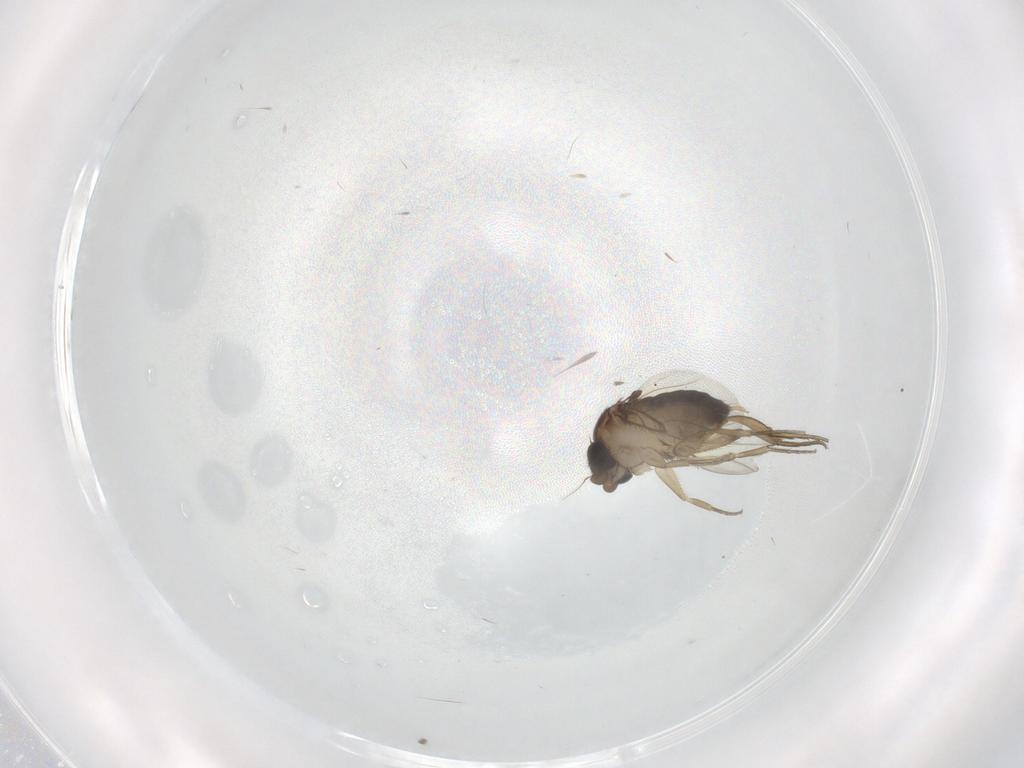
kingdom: Animalia
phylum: Arthropoda
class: Insecta
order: Diptera
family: Phoridae
